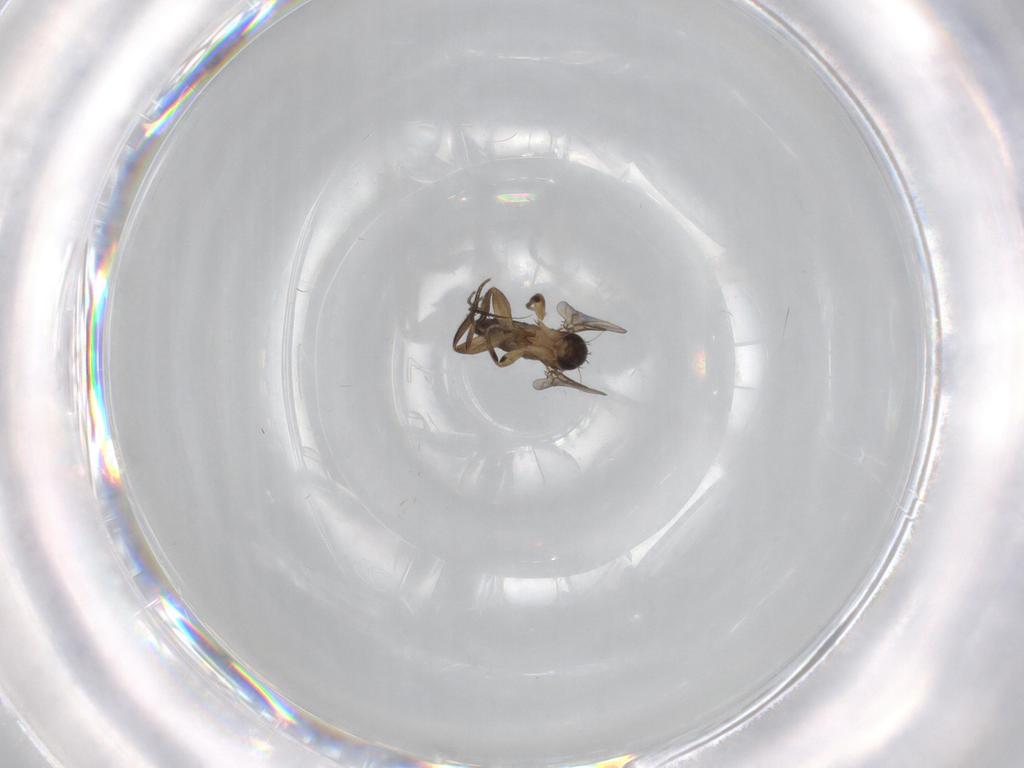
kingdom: Animalia
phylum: Arthropoda
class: Insecta
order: Diptera
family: Phoridae
